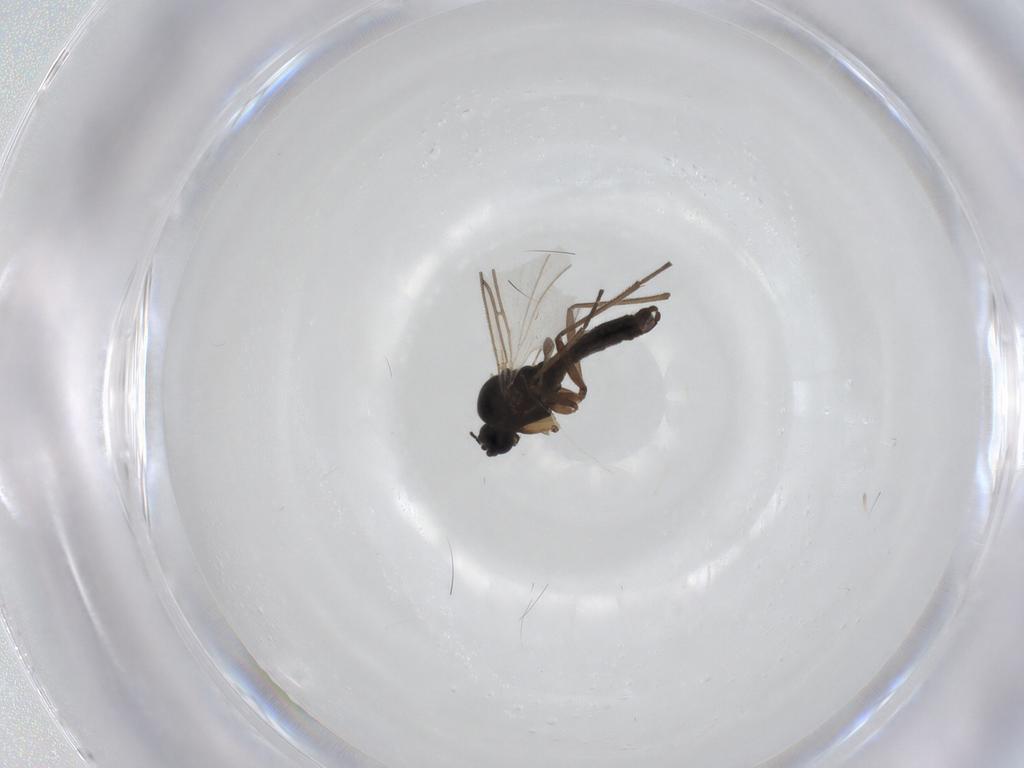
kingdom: Animalia
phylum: Arthropoda
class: Insecta
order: Diptera
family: Sciaridae
